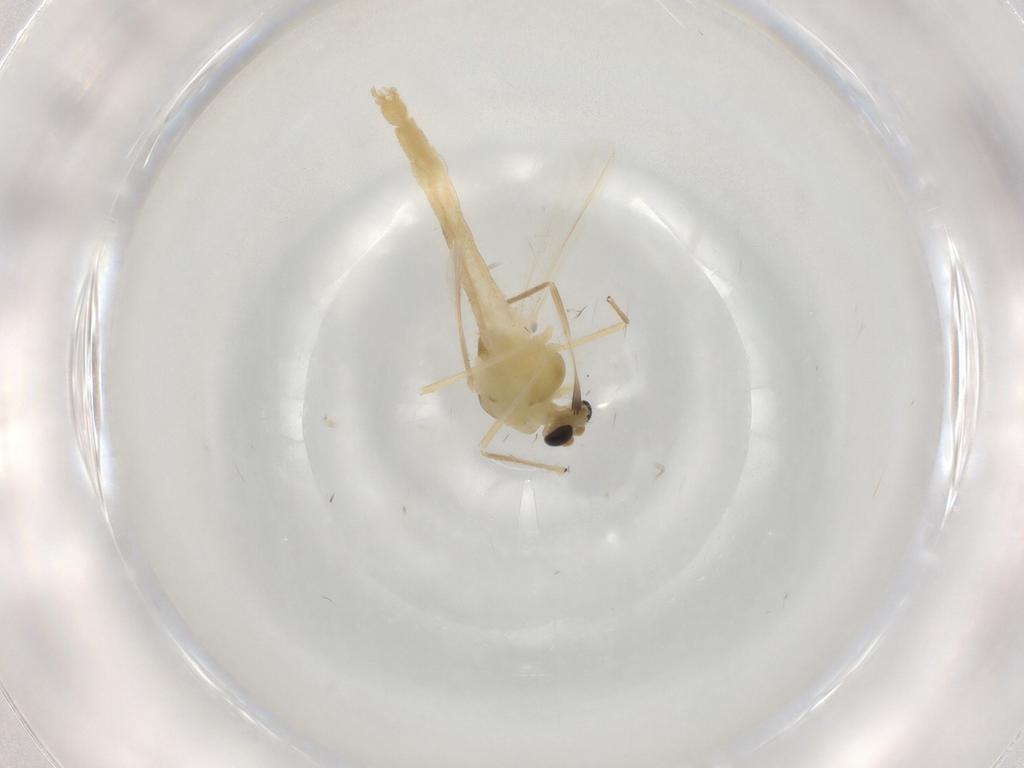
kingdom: Animalia
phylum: Arthropoda
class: Insecta
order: Diptera
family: Chironomidae
